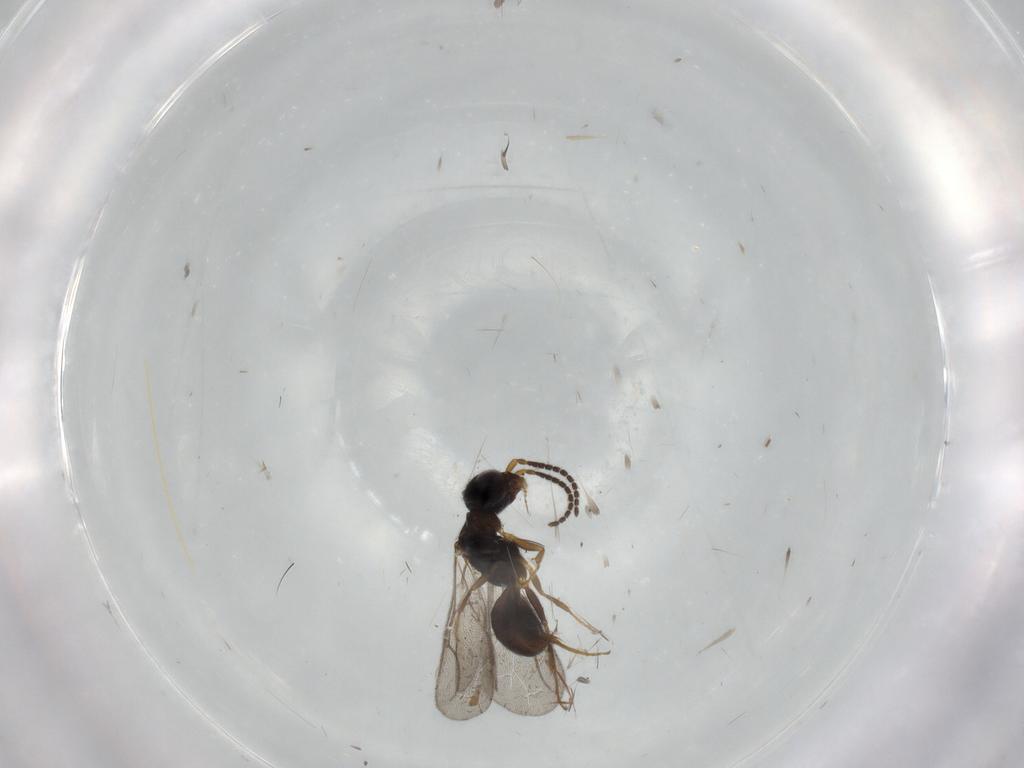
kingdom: Animalia
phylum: Arthropoda
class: Insecta
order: Hymenoptera
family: Bethylidae
